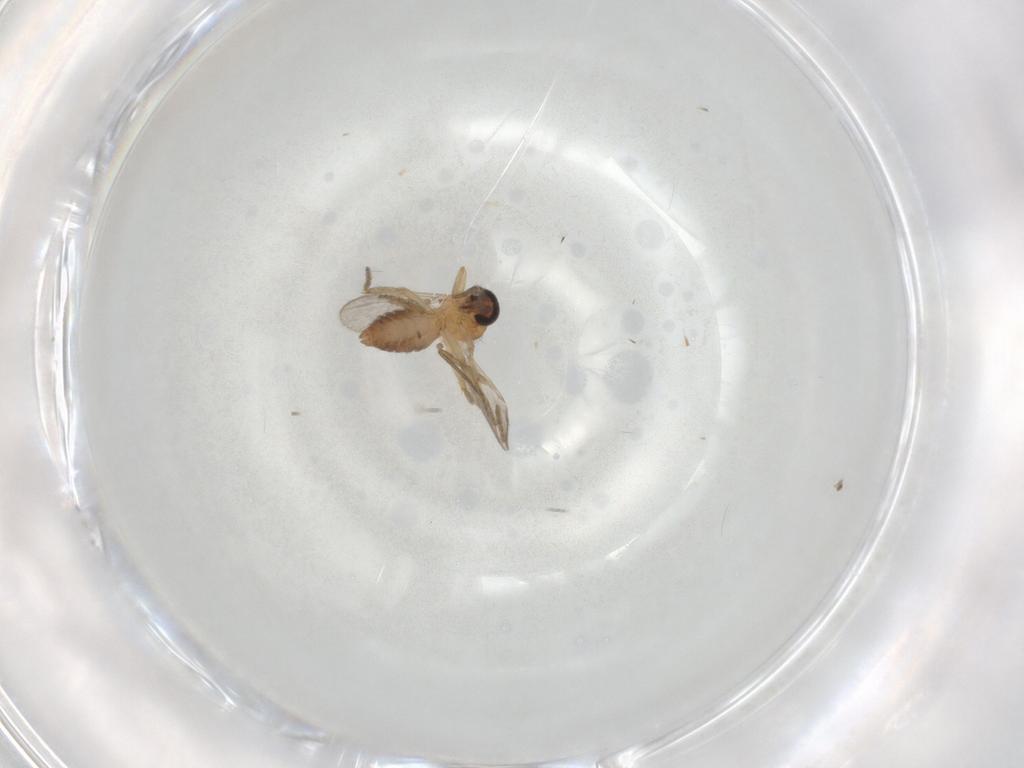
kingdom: Animalia
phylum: Arthropoda
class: Insecta
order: Diptera
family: Ceratopogonidae
